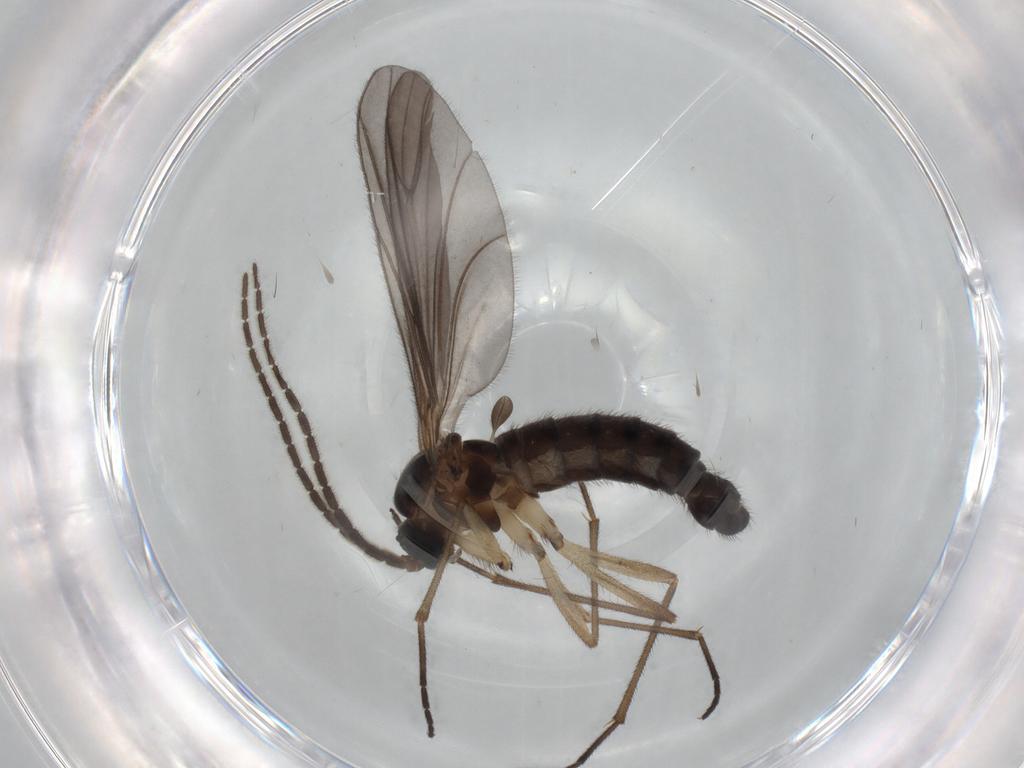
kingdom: Animalia
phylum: Arthropoda
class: Insecta
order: Diptera
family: Sciaridae
